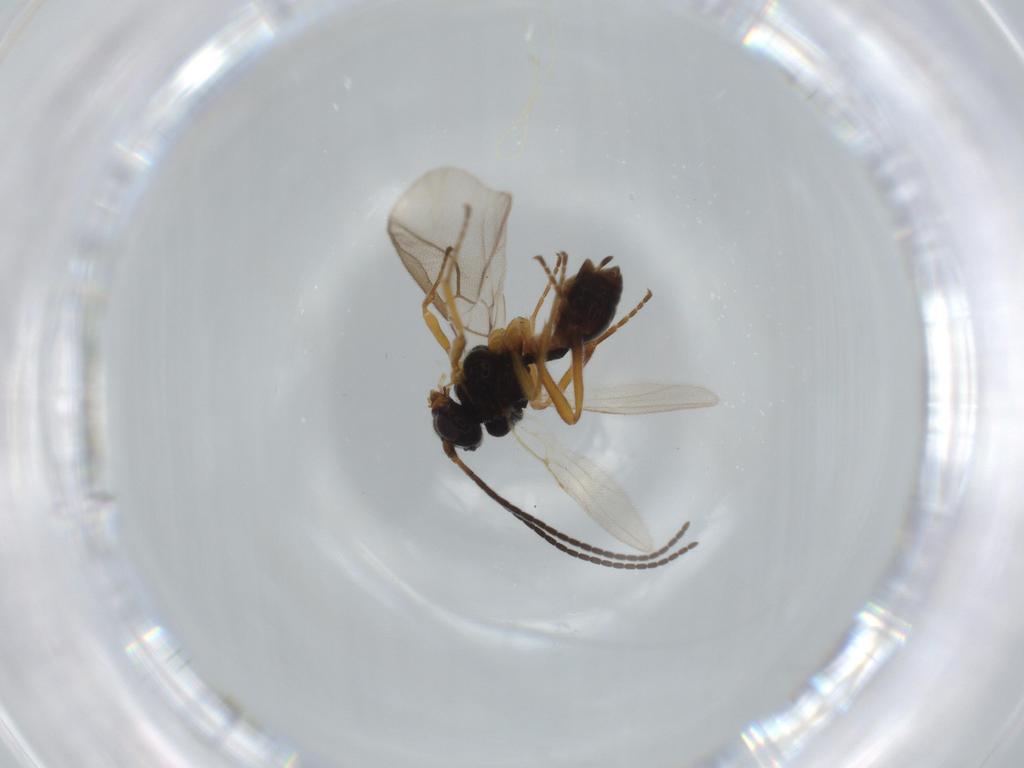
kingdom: Animalia
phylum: Arthropoda
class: Insecta
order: Hymenoptera
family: Braconidae
